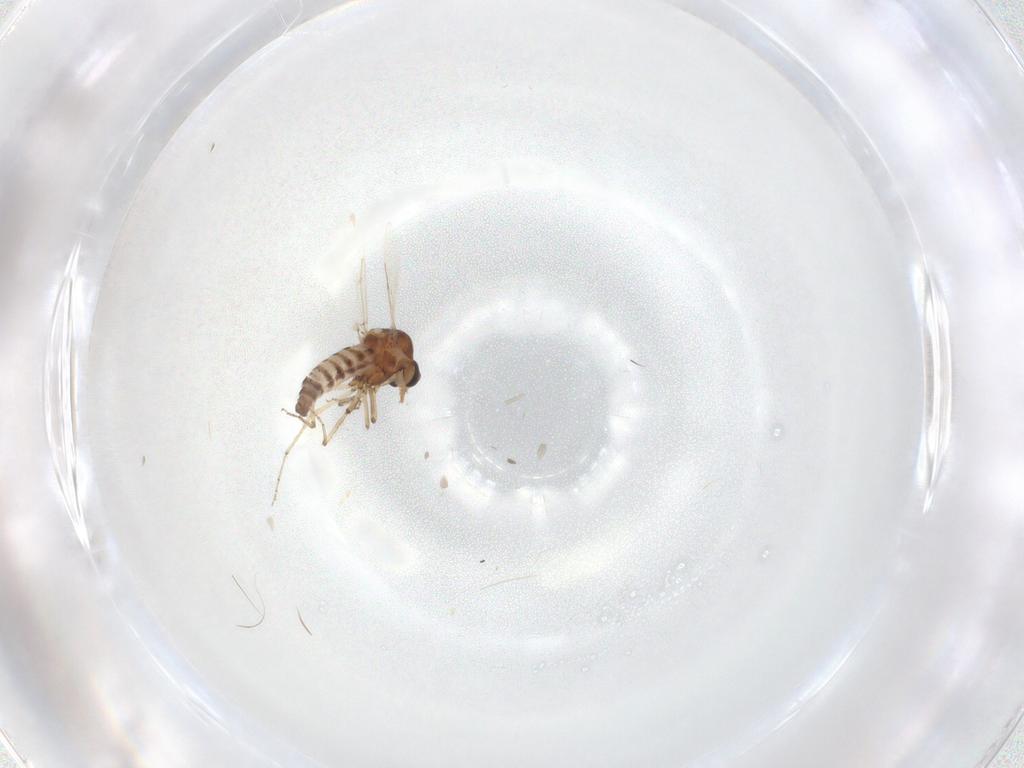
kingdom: Animalia
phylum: Arthropoda
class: Insecta
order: Diptera
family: Ceratopogonidae
